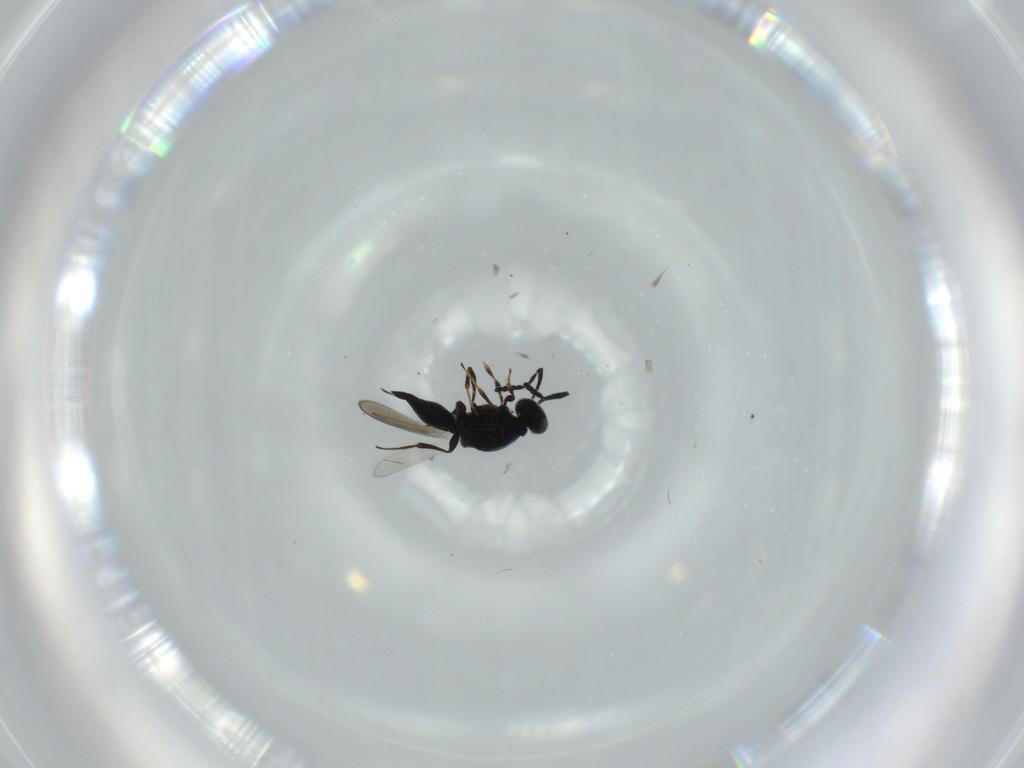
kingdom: Animalia
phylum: Arthropoda
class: Insecta
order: Hymenoptera
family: Platygastridae
